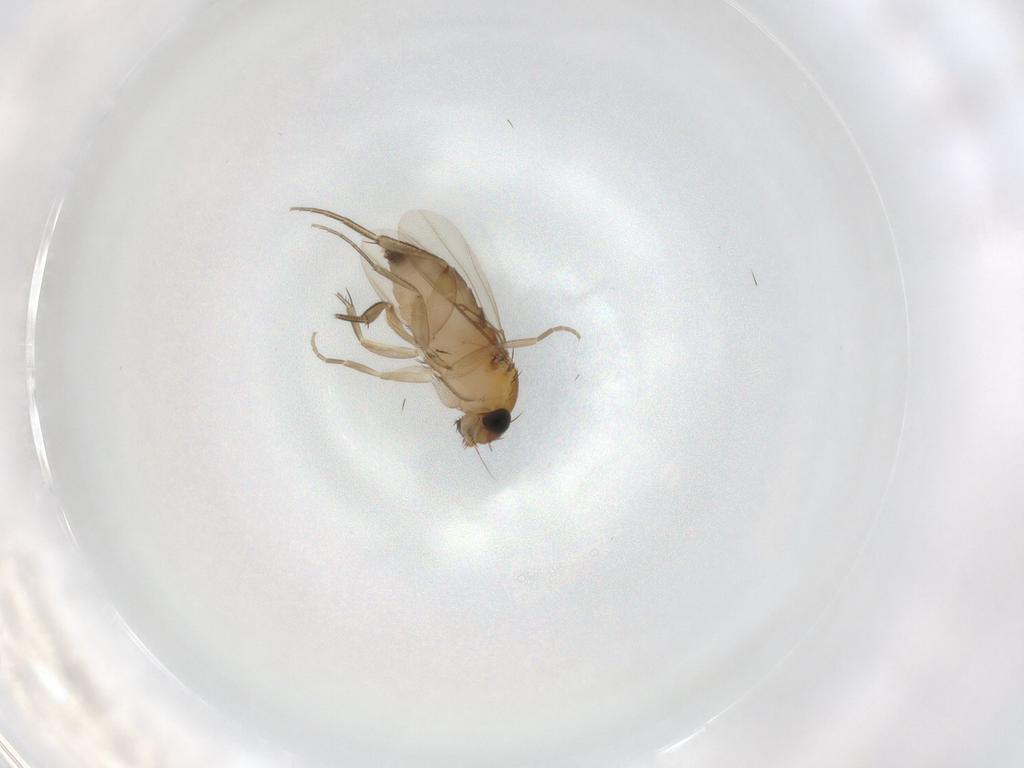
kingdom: Animalia
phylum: Arthropoda
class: Insecta
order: Diptera
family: Phoridae
